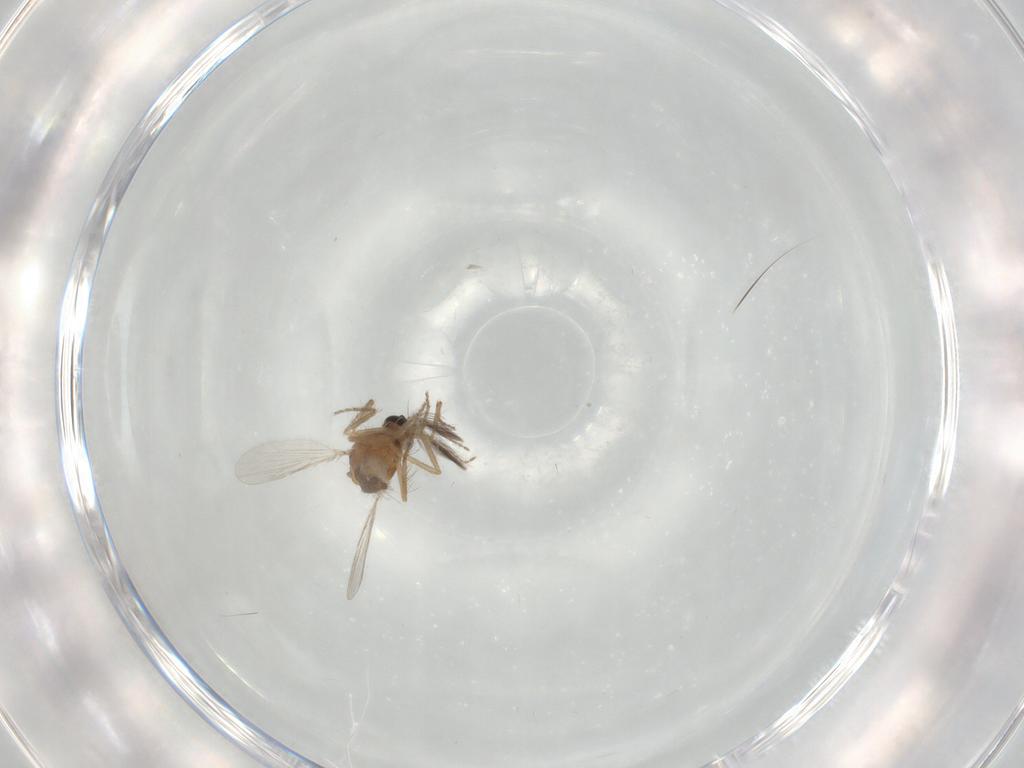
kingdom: Animalia
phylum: Arthropoda
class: Insecta
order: Diptera
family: Ceratopogonidae
